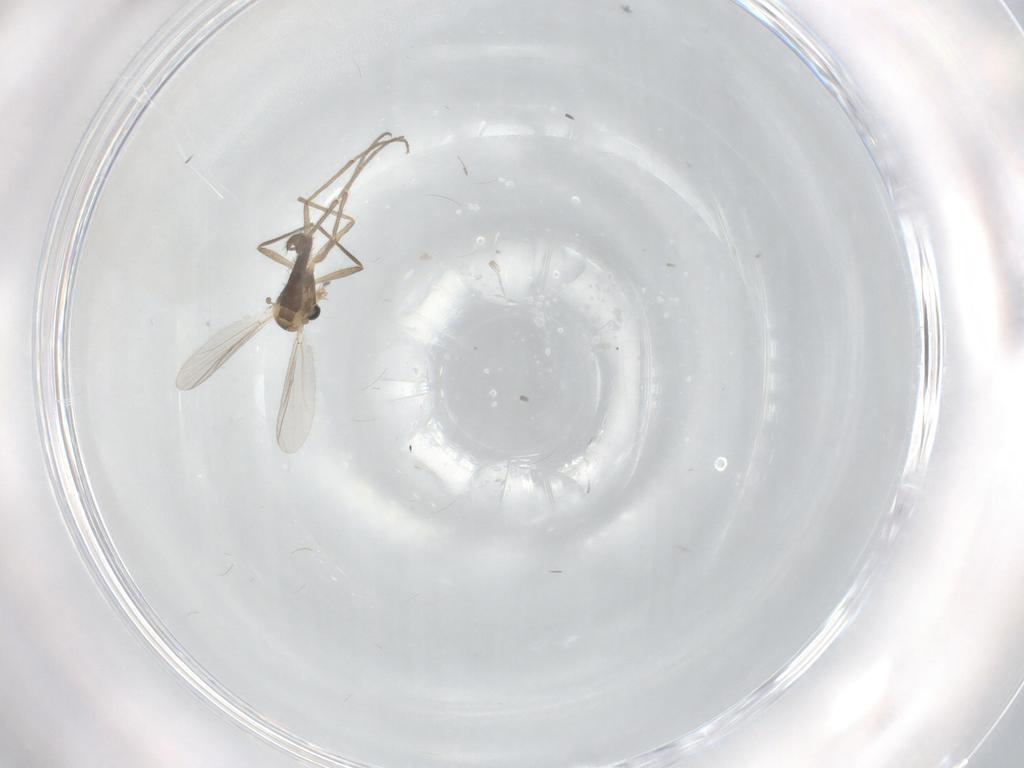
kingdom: Animalia
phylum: Arthropoda
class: Insecta
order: Diptera
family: Chironomidae
